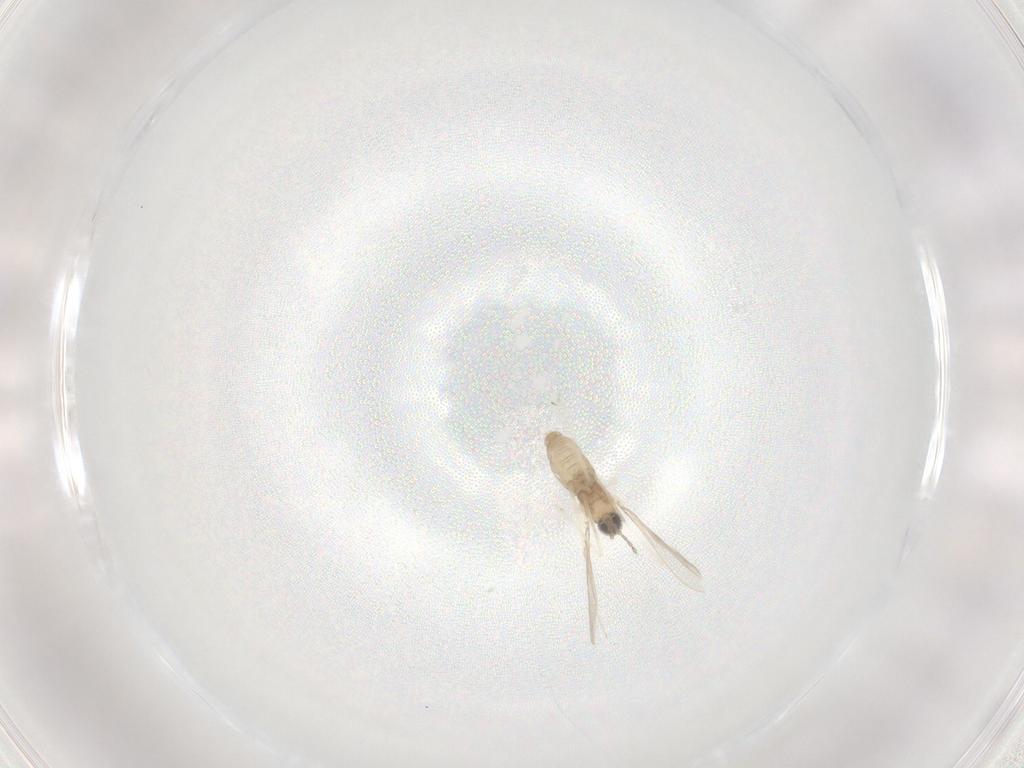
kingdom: Animalia
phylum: Arthropoda
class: Insecta
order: Diptera
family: Cecidomyiidae
